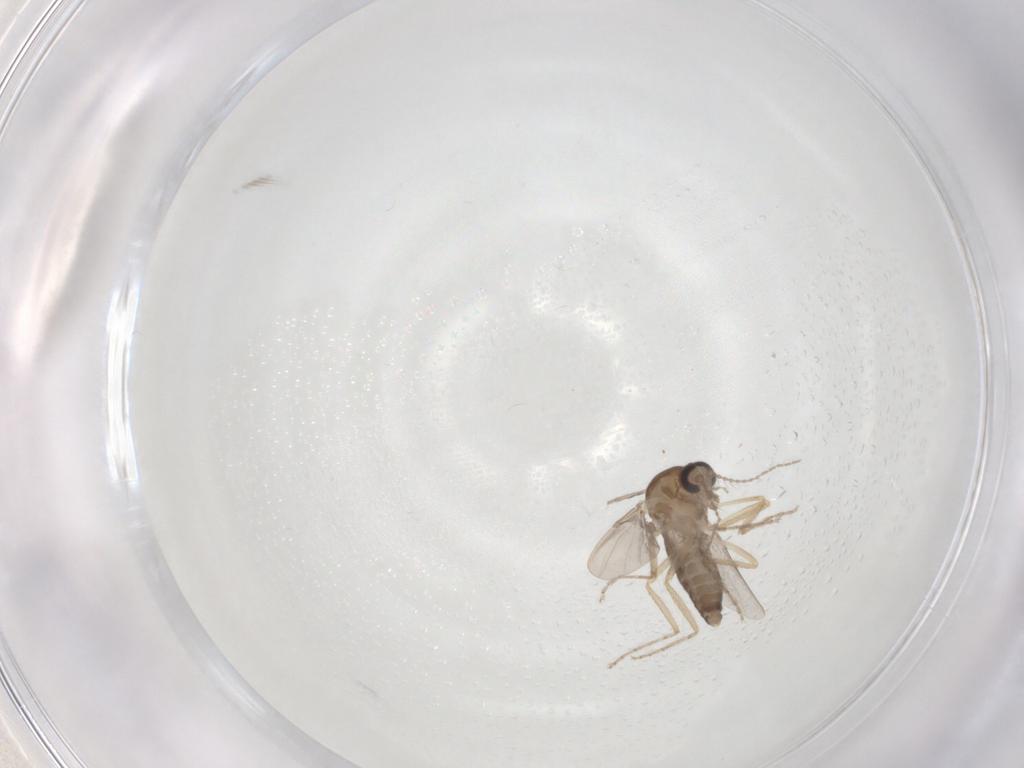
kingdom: Animalia
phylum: Arthropoda
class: Insecta
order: Diptera
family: Ceratopogonidae
